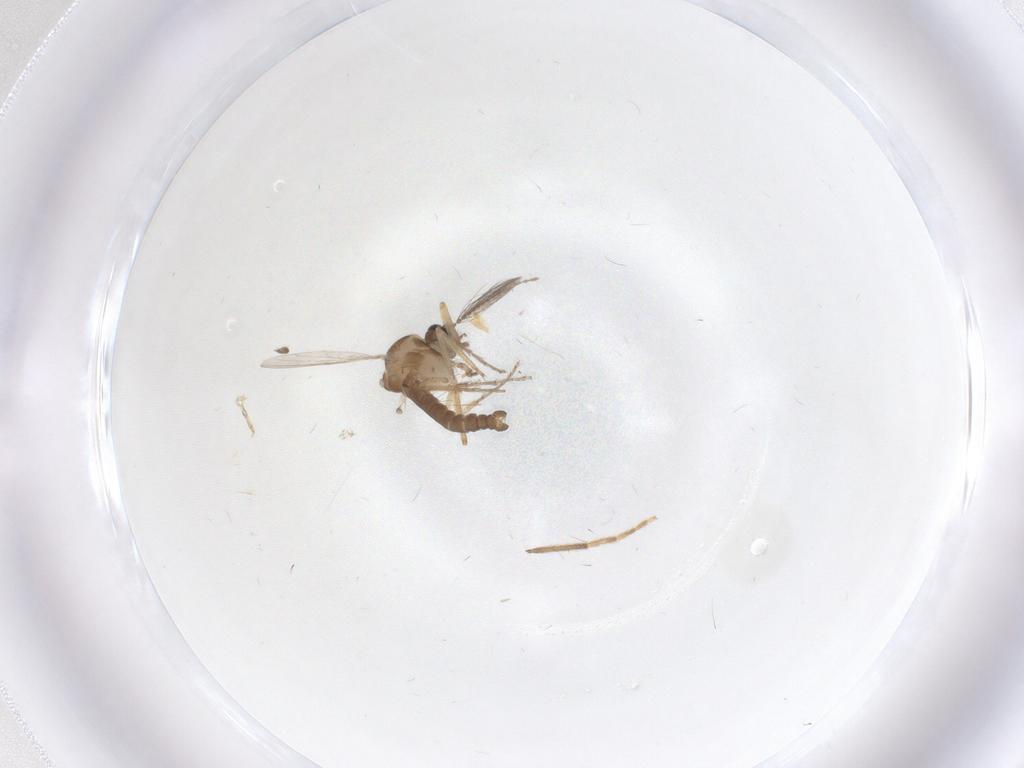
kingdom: Animalia
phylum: Arthropoda
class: Insecta
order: Diptera
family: Ceratopogonidae
